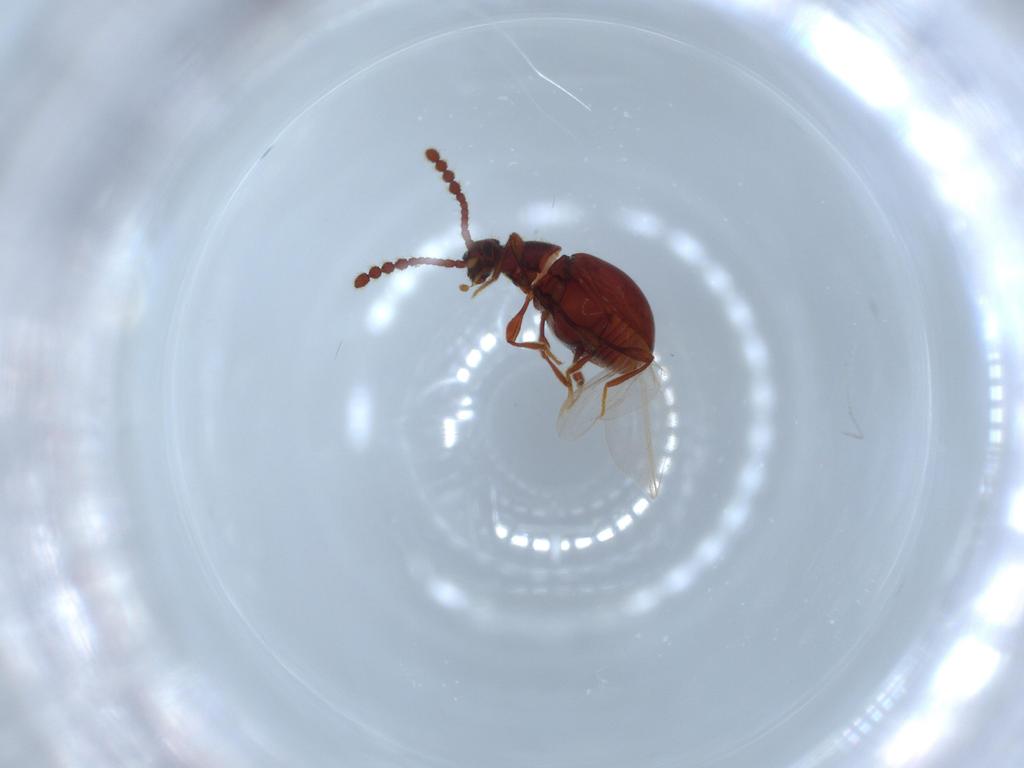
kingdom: Animalia
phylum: Arthropoda
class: Insecta
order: Coleoptera
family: Staphylinidae
